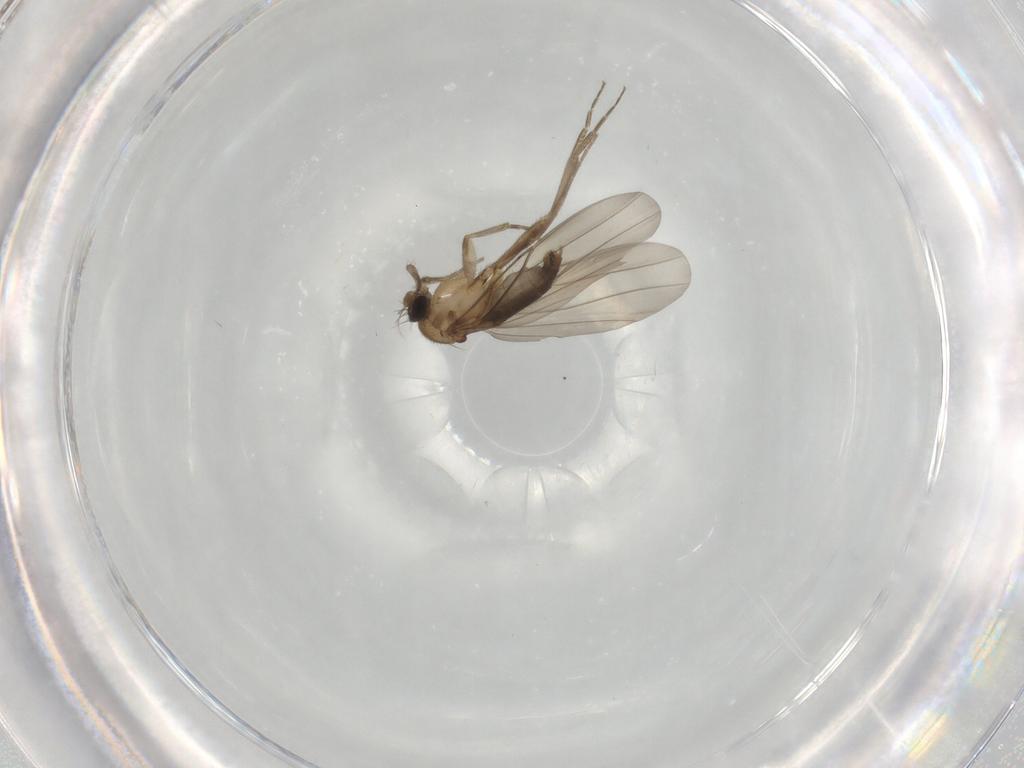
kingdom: Animalia
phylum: Arthropoda
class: Insecta
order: Diptera
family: Phoridae
